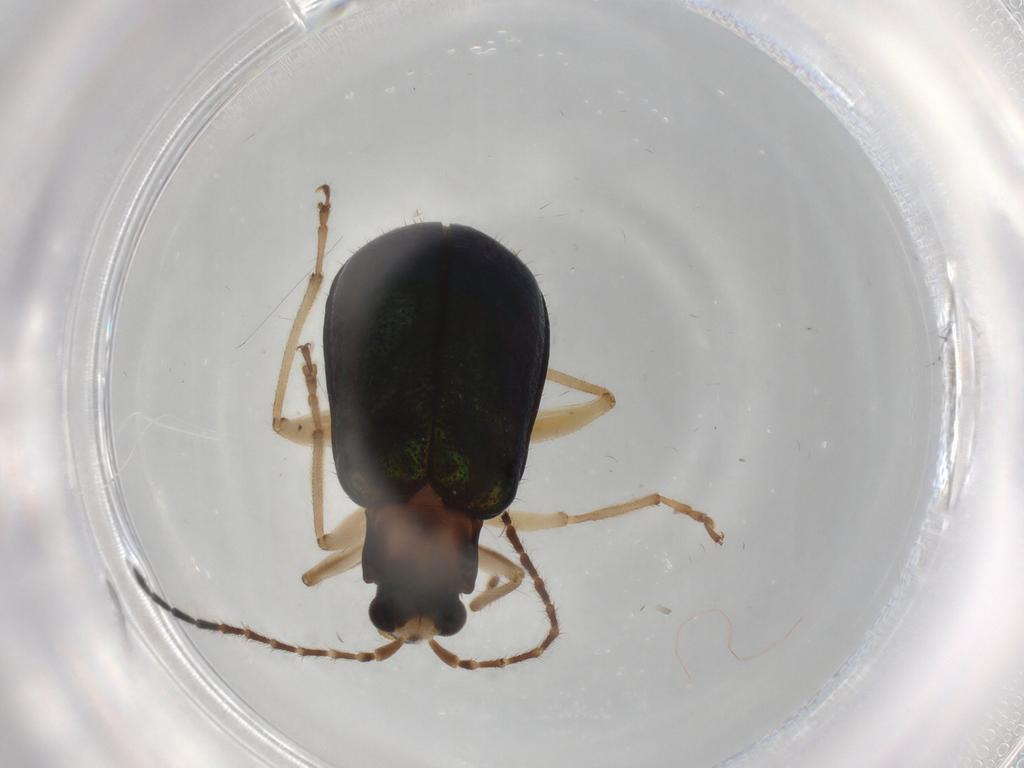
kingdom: Animalia
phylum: Arthropoda
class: Insecta
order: Coleoptera
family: Chrysomelidae
